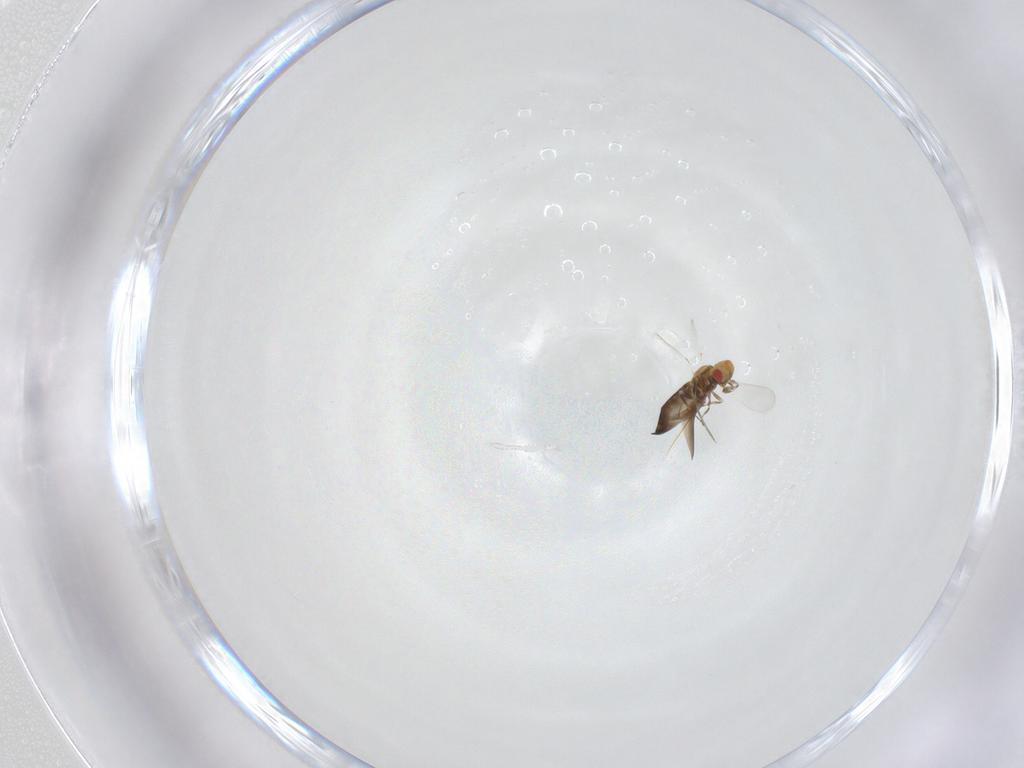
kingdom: Animalia
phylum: Arthropoda
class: Insecta
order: Hymenoptera
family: Trichogrammatidae
